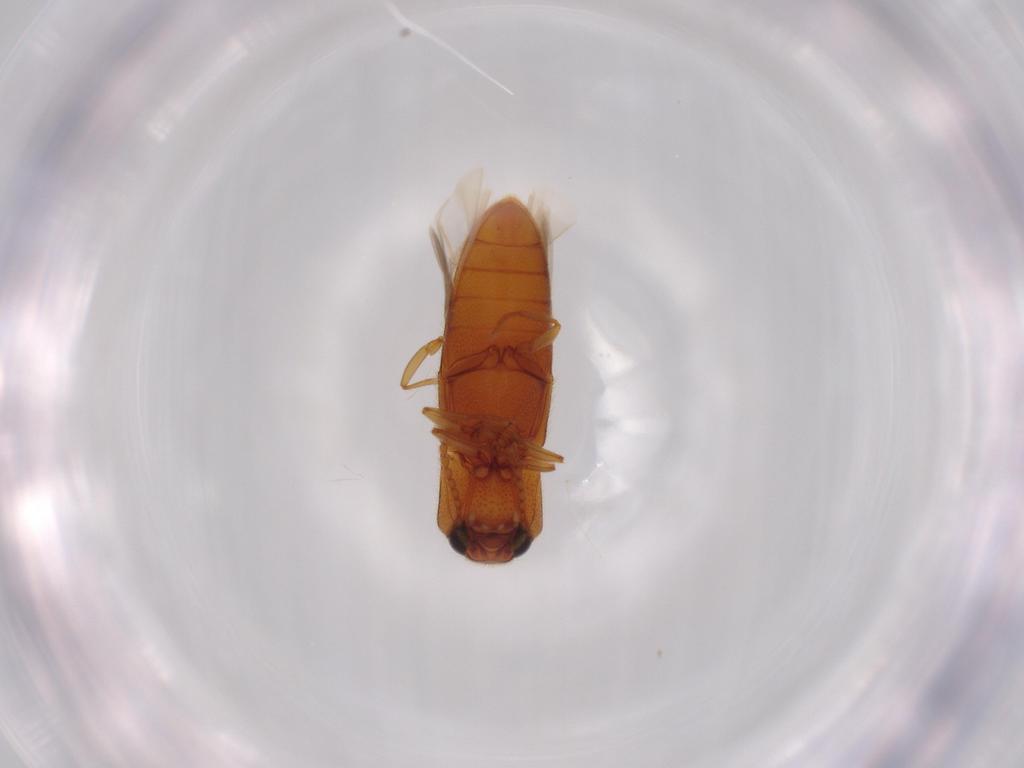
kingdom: Animalia
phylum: Arthropoda
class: Insecta
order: Coleoptera
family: Elateridae
